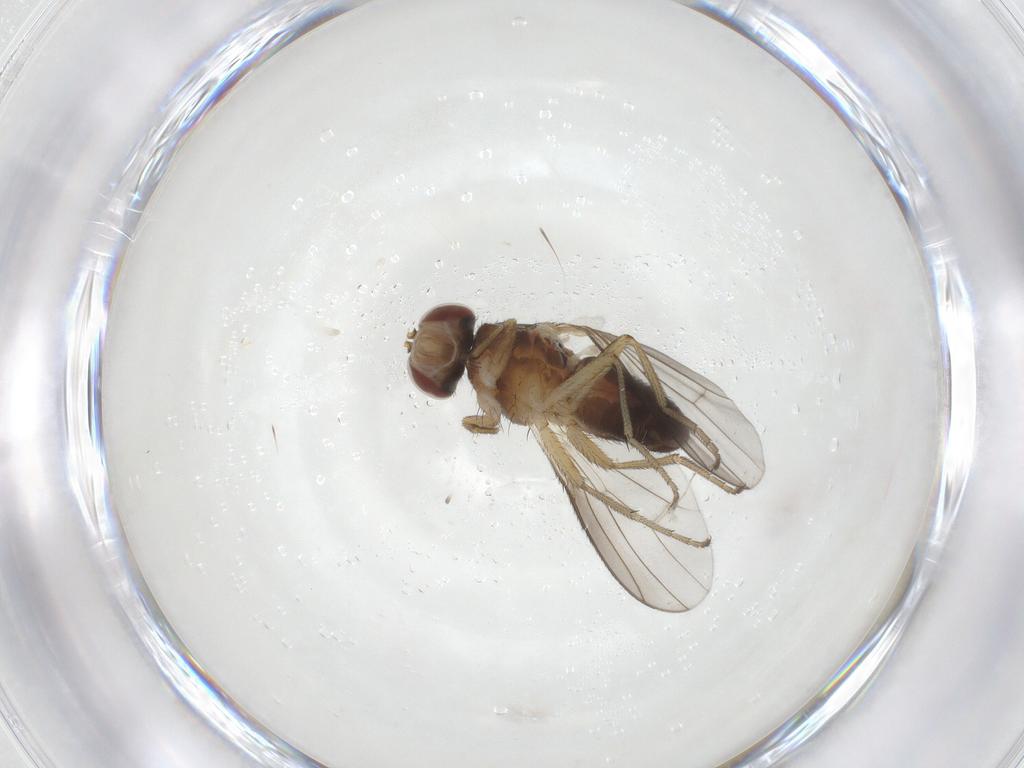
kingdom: Animalia
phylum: Arthropoda
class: Insecta
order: Diptera
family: Heleomyzidae
